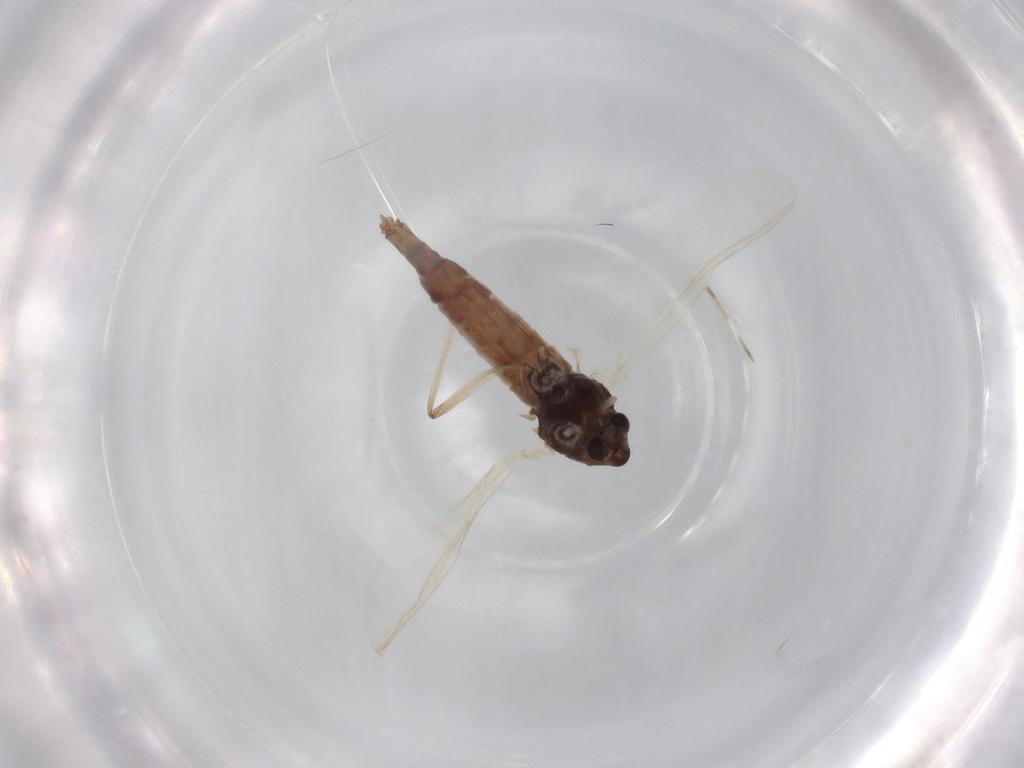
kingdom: Animalia
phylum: Arthropoda
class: Insecta
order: Diptera
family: Chironomidae
